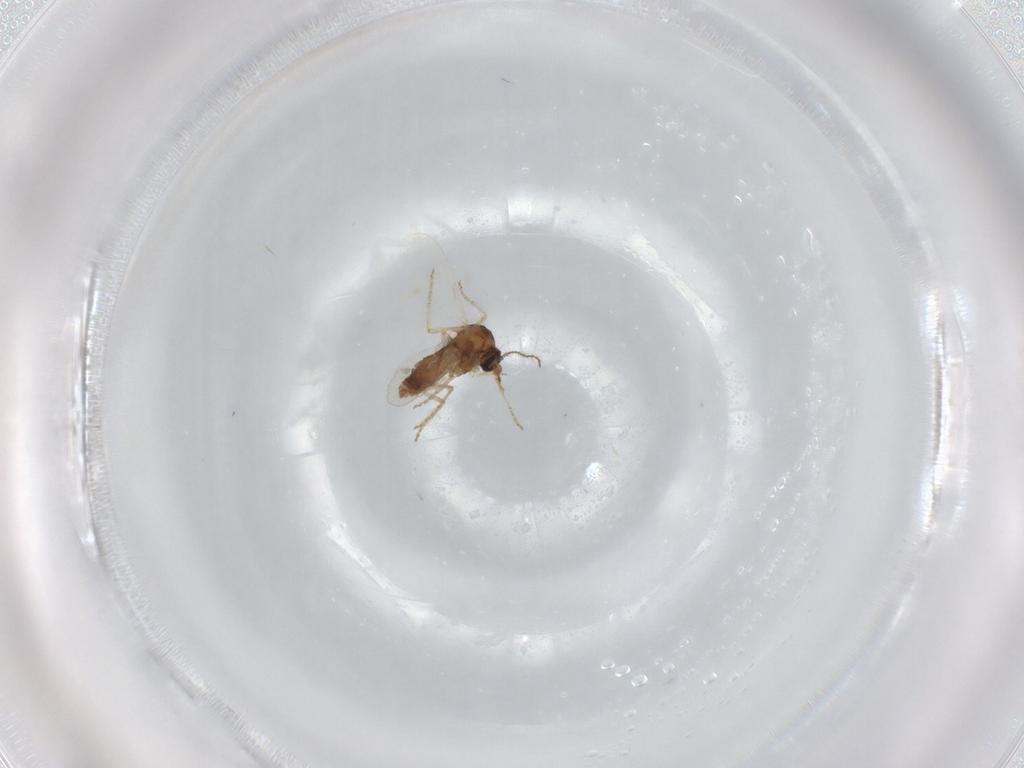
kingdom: Animalia
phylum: Arthropoda
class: Insecta
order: Diptera
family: Ceratopogonidae
